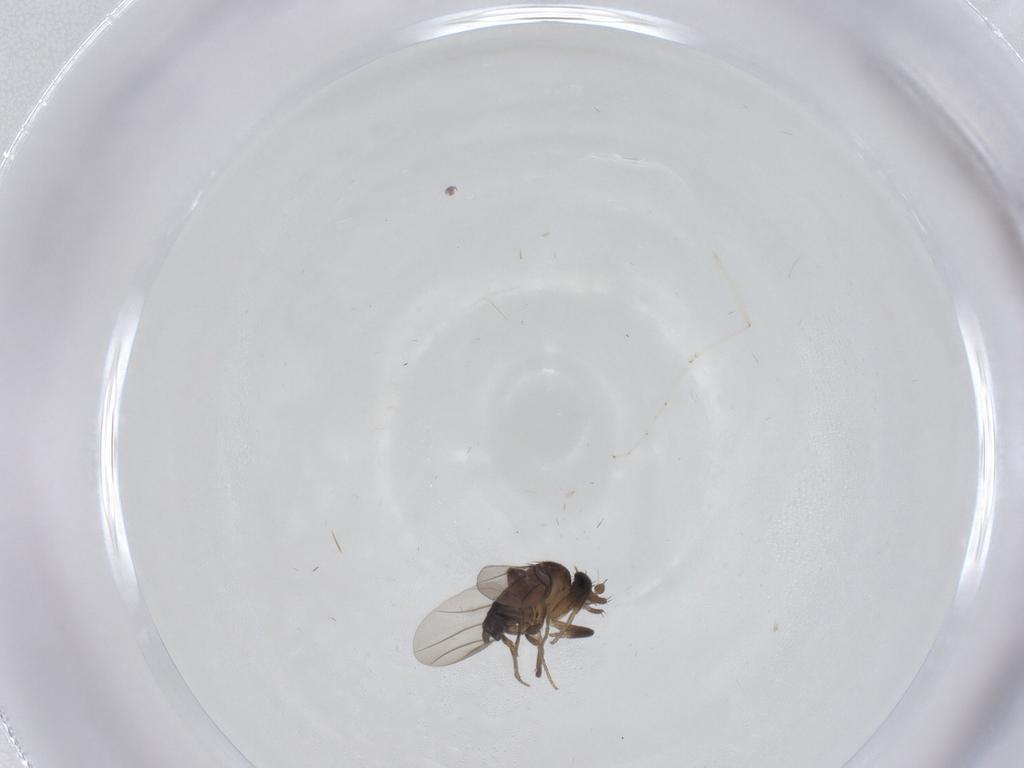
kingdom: Animalia
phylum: Arthropoda
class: Insecta
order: Diptera
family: Phoridae
